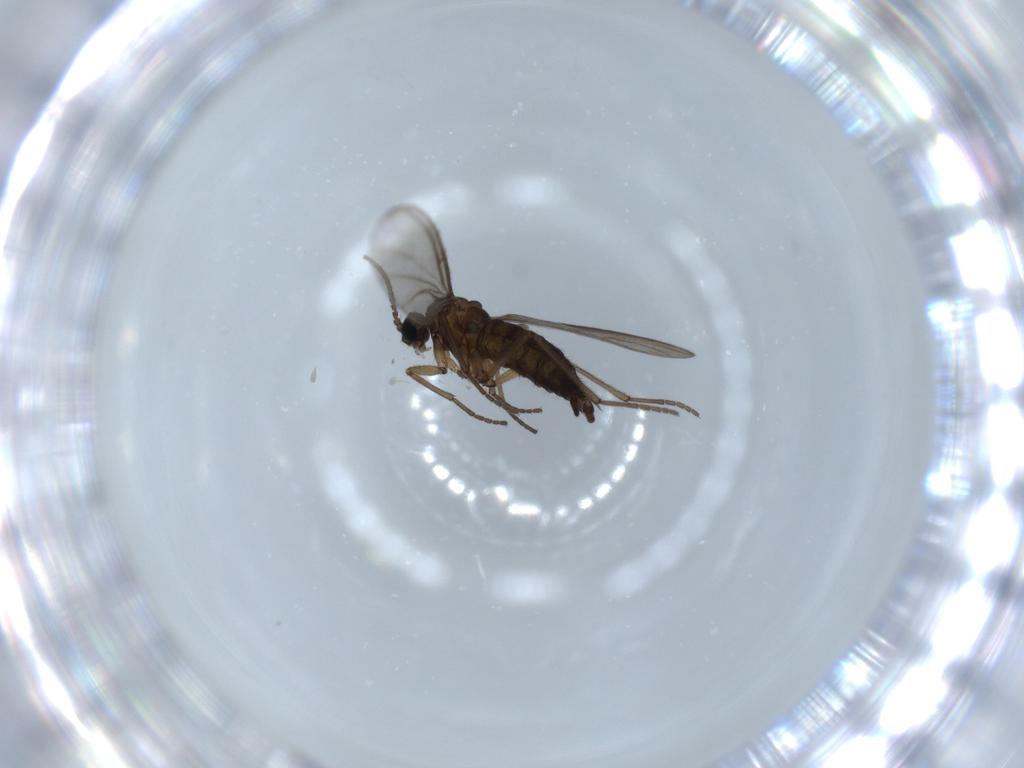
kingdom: Animalia
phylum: Arthropoda
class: Insecta
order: Diptera
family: Sciaridae
